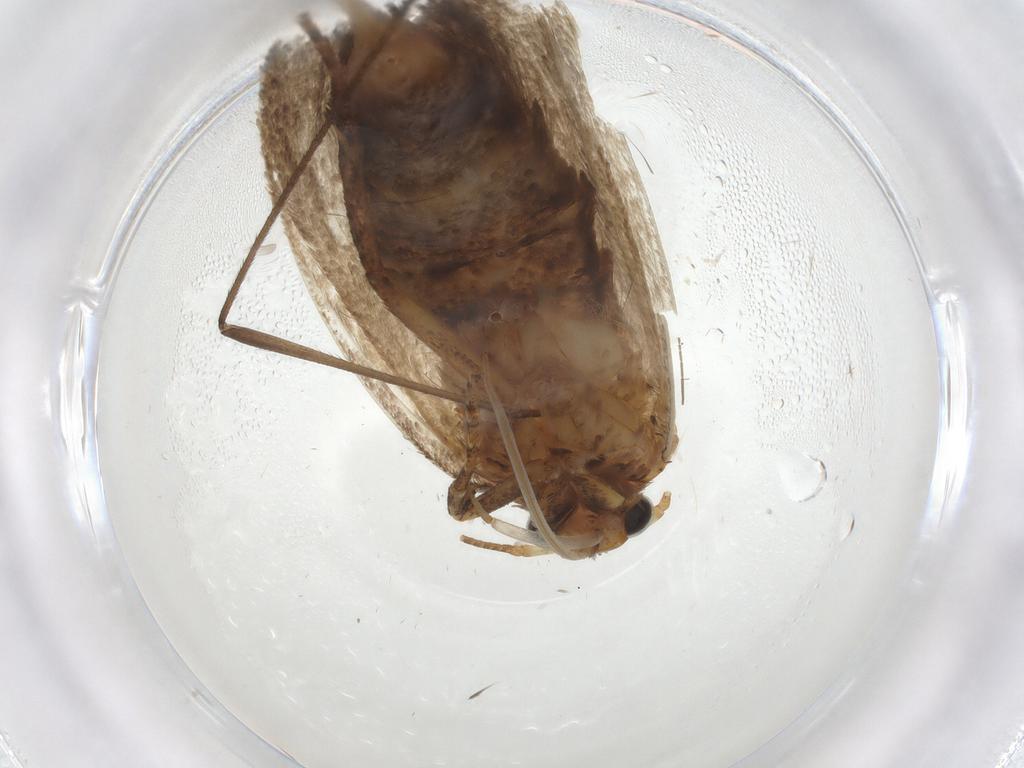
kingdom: Animalia
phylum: Arthropoda
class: Insecta
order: Lepidoptera
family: Oecophoridae
